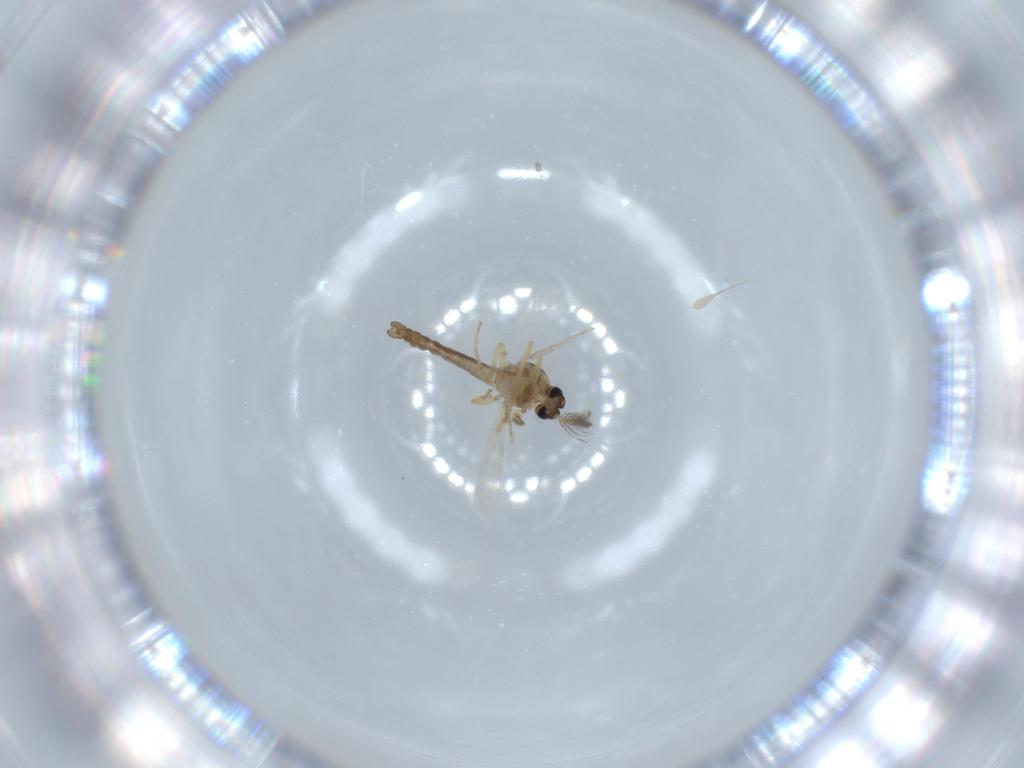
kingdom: Animalia
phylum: Arthropoda
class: Insecta
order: Diptera
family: Ceratopogonidae
